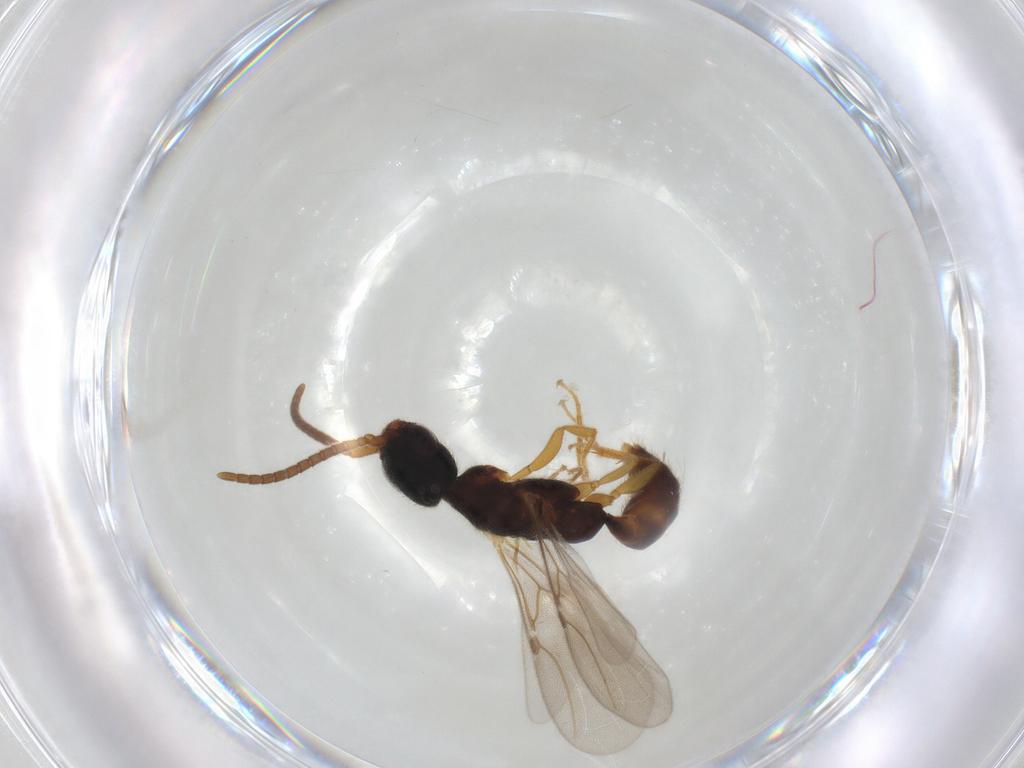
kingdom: Animalia
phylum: Arthropoda
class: Insecta
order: Hymenoptera
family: Bethylidae
